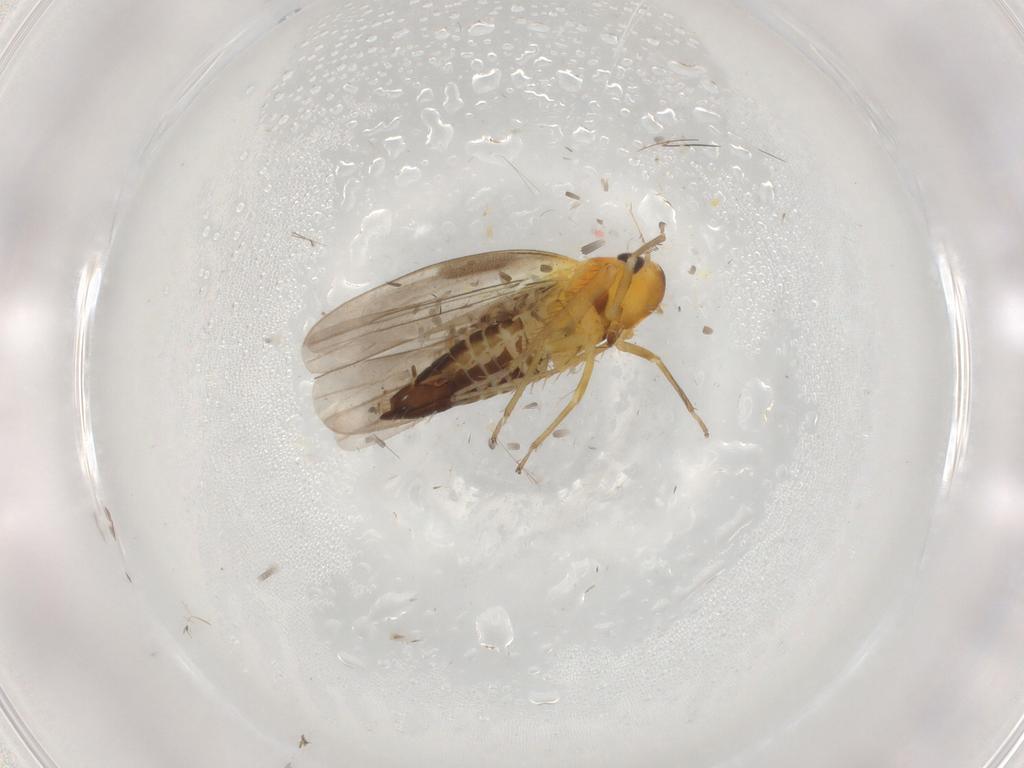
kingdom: Animalia
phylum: Arthropoda
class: Insecta
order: Hemiptera
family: Cicadellidae
